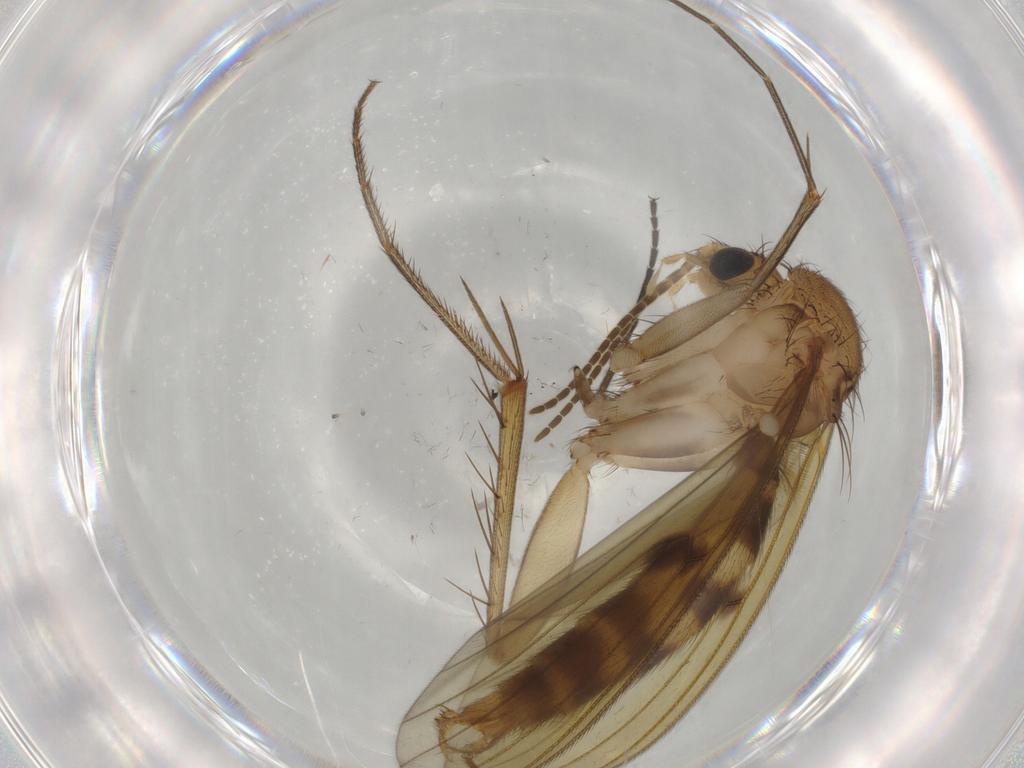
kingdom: Animalia
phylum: Arthropoda
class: Insecta
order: Diptera
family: Mycetophilidae
